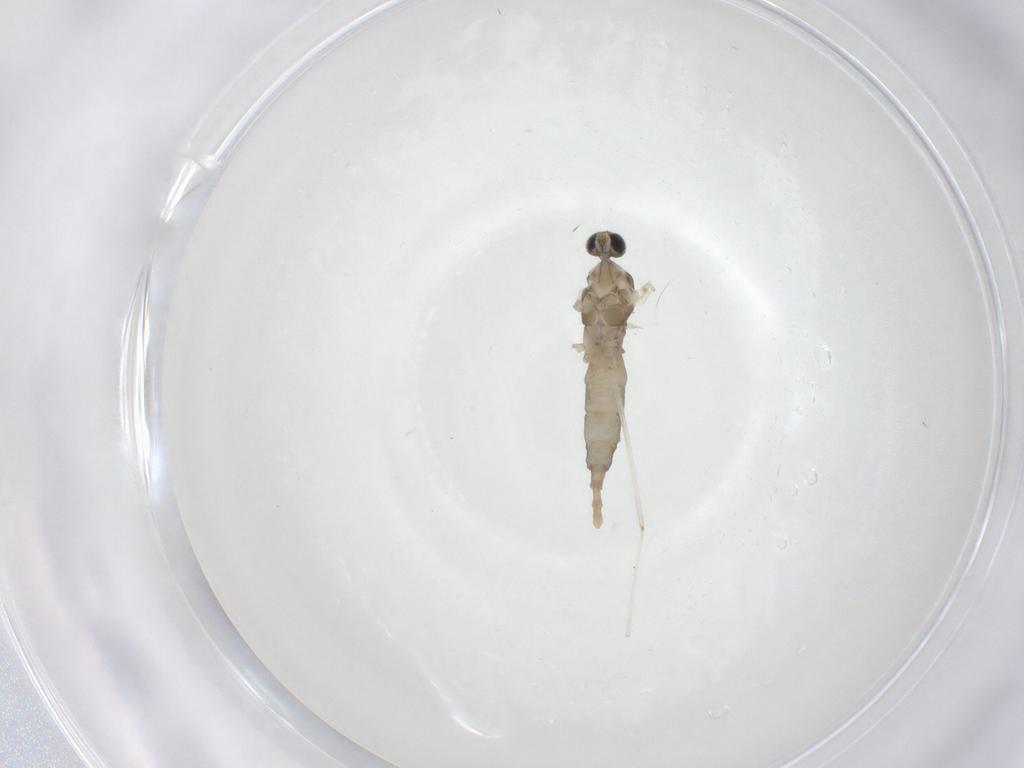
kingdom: Animalia
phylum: Arthropoda
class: Insecta
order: Diptera
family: Cecidomyiidae
